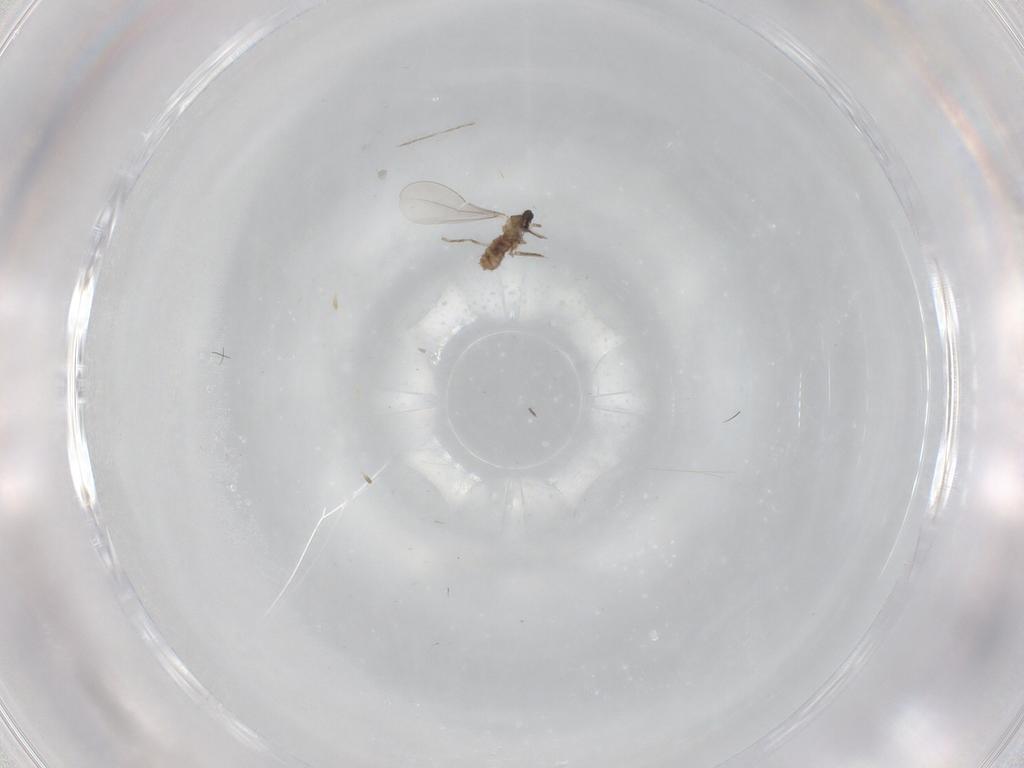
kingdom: Animalia
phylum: Arthropoda
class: Insecta
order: Diptera
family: Cecidomyiidae
